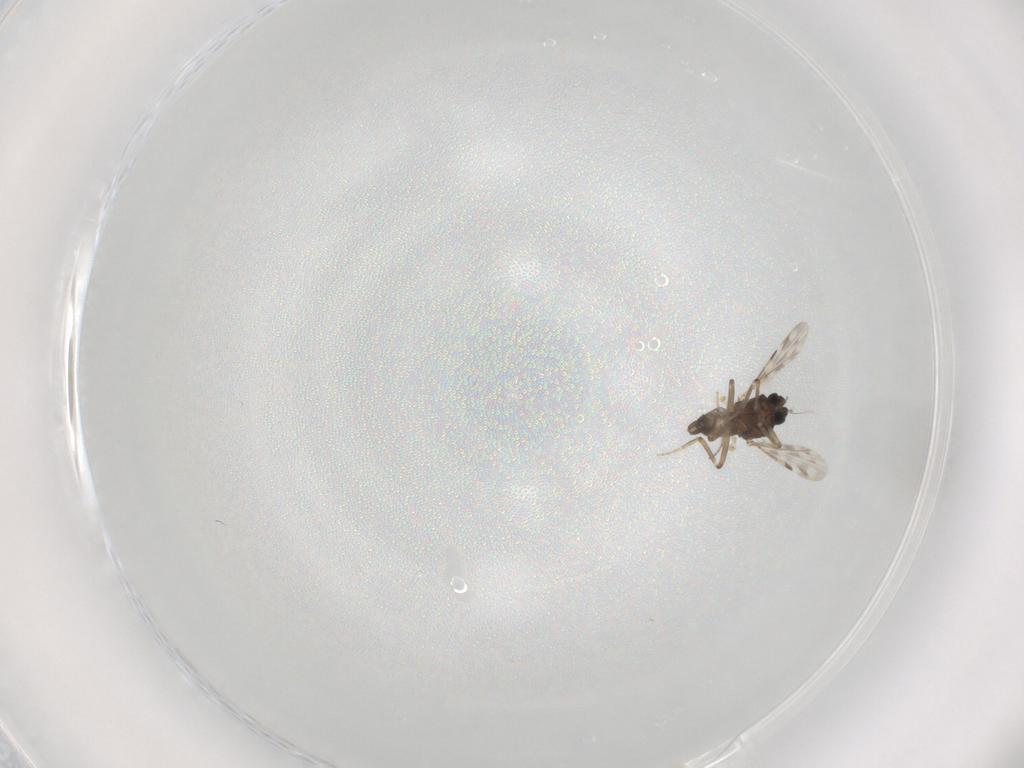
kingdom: Animalia
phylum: Arthropoda
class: Insecta
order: Diptera
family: Ceratopogonidae
